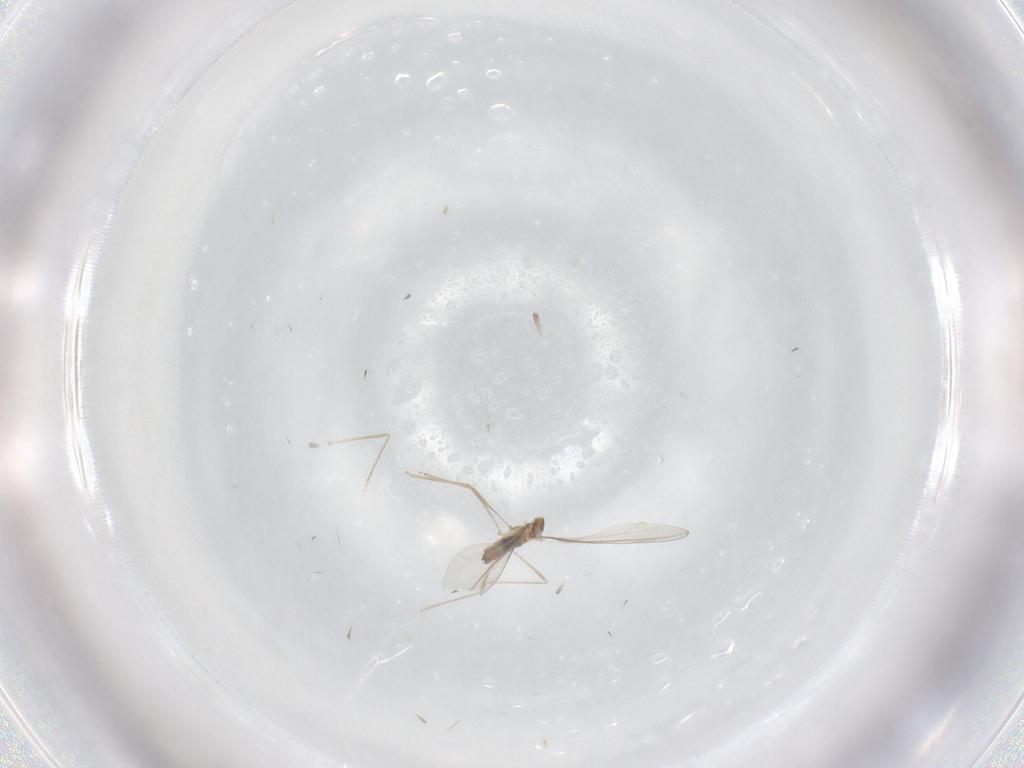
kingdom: Animalia
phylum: Arthropoda
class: Insecta
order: Diptera
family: Cecidomyiidae
